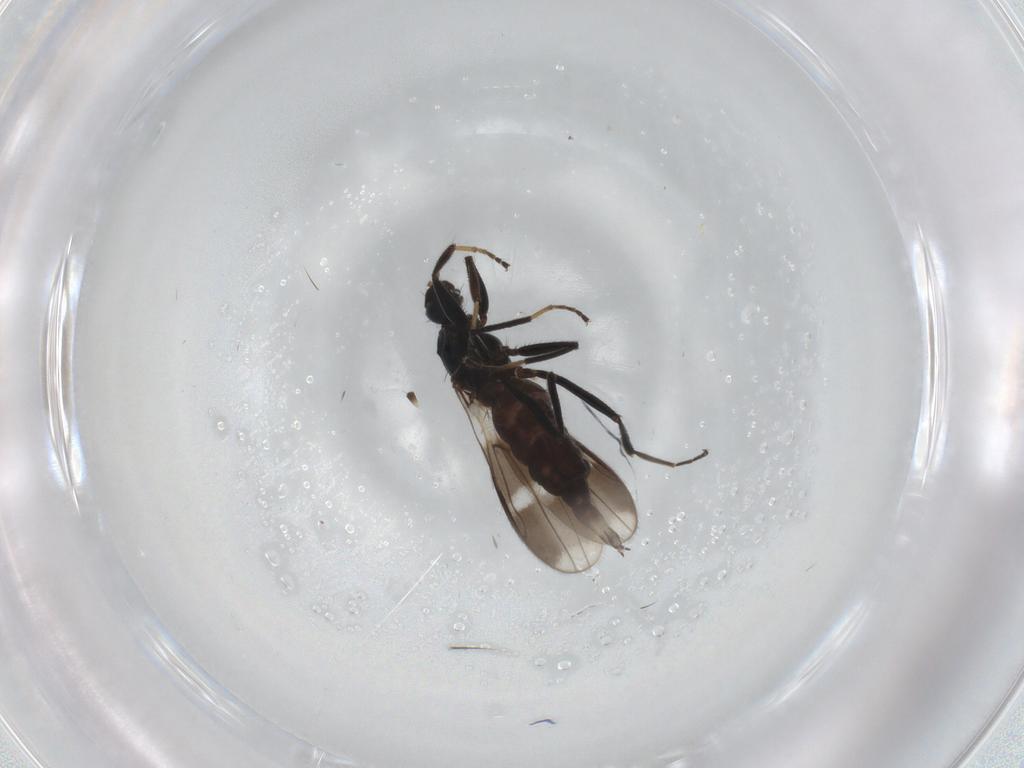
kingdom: Animalia
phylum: Arthropoda
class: Insecta
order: Diptera
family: Hybotidae
